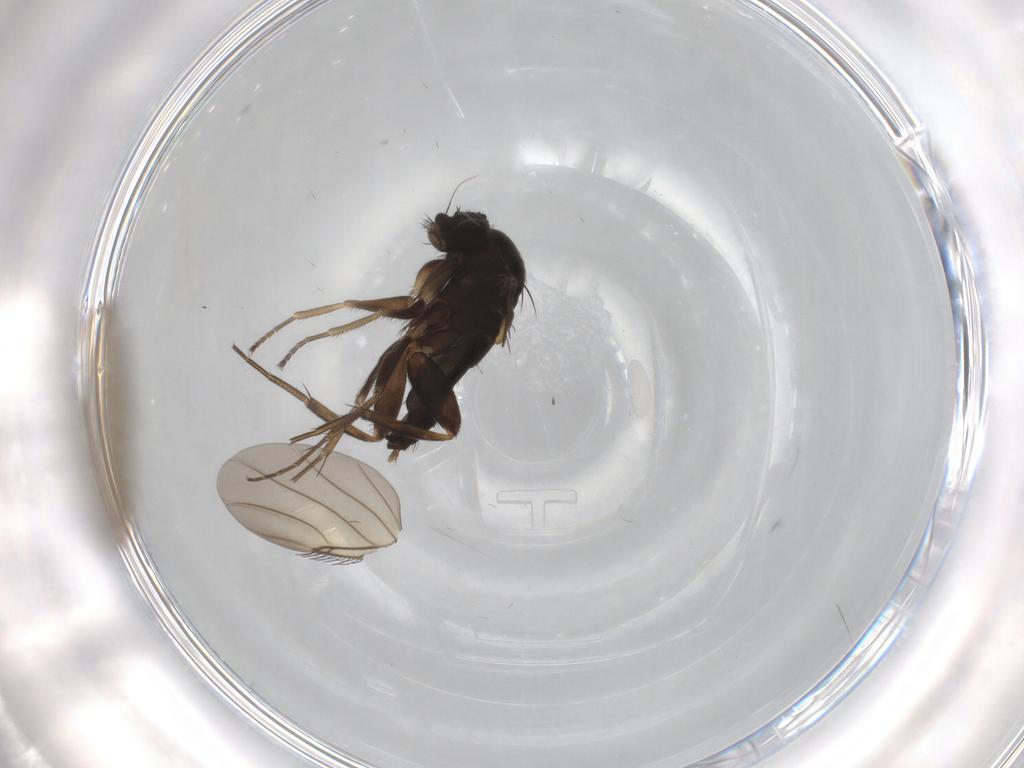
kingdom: Animalia
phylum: Arthropoda
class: Insecta
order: Diptera
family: Phoridae
